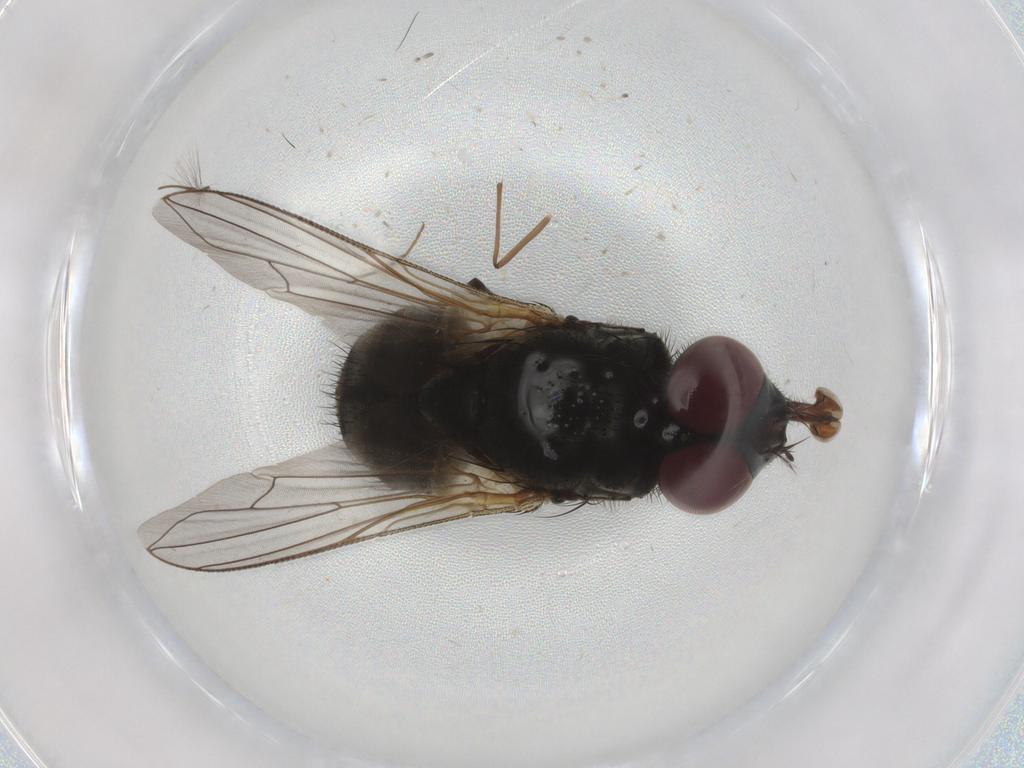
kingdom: Animalia
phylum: Arthropoda
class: Insecta
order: Diptera
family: Muscidae
